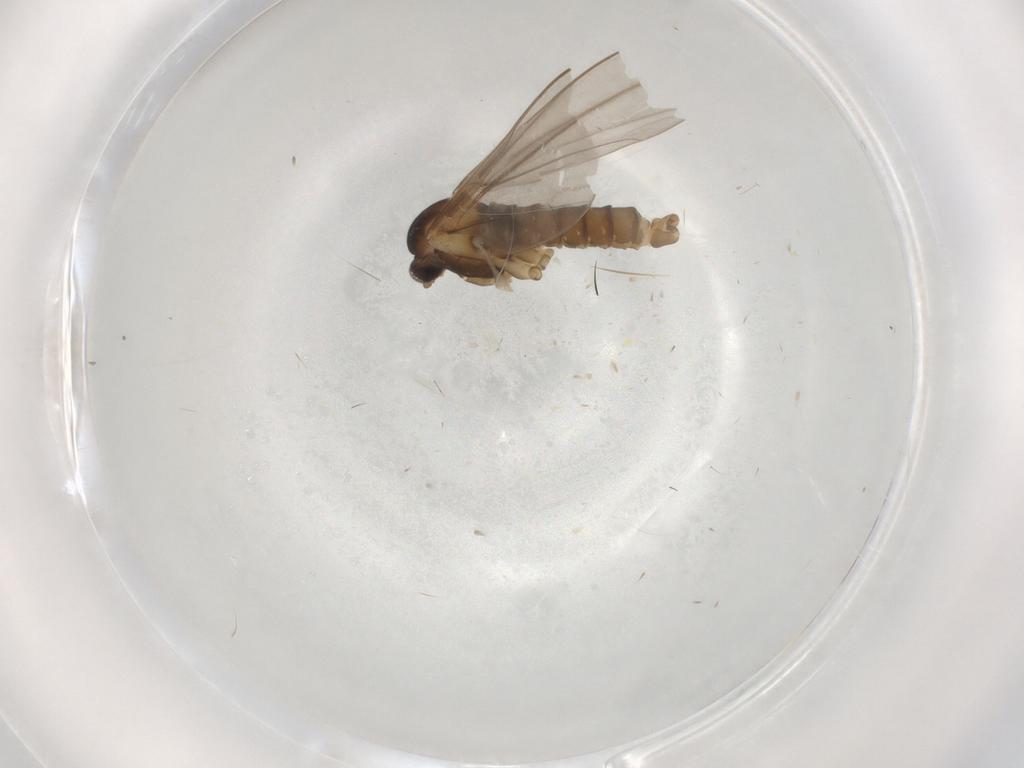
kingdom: Animalia
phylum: Arthropoda
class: Insecta
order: Diptera
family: Cecidomyiidae
